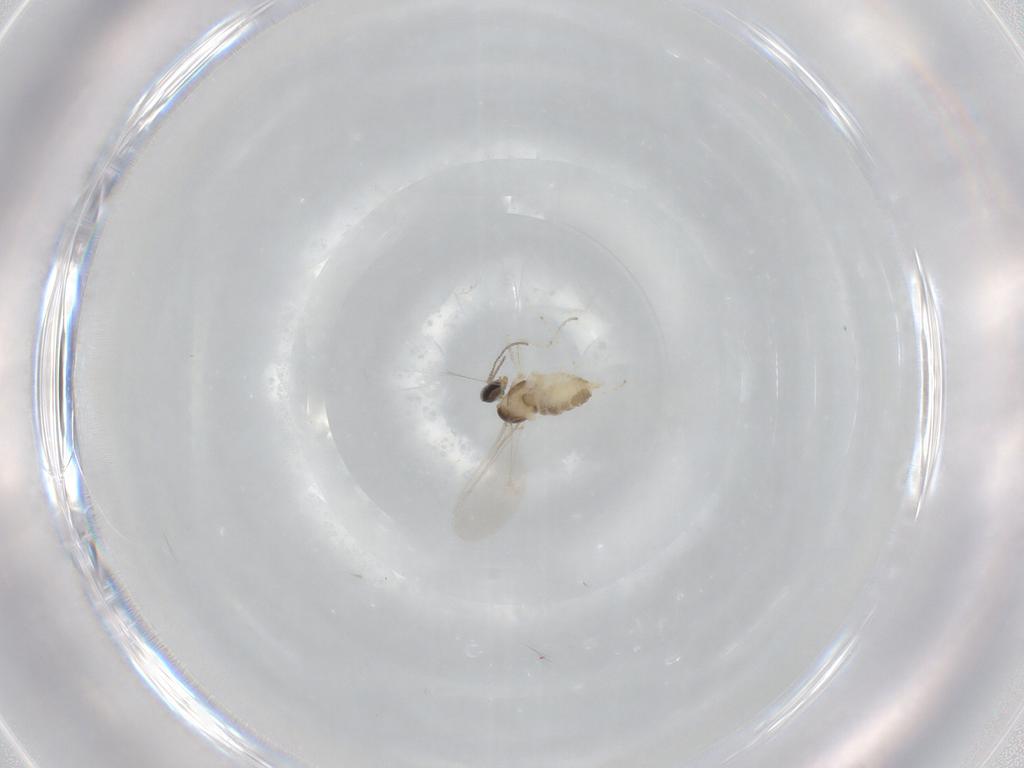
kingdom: Animalia
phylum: Arthropoda
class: Insecta
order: Diptera
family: Cecidomyiidae
